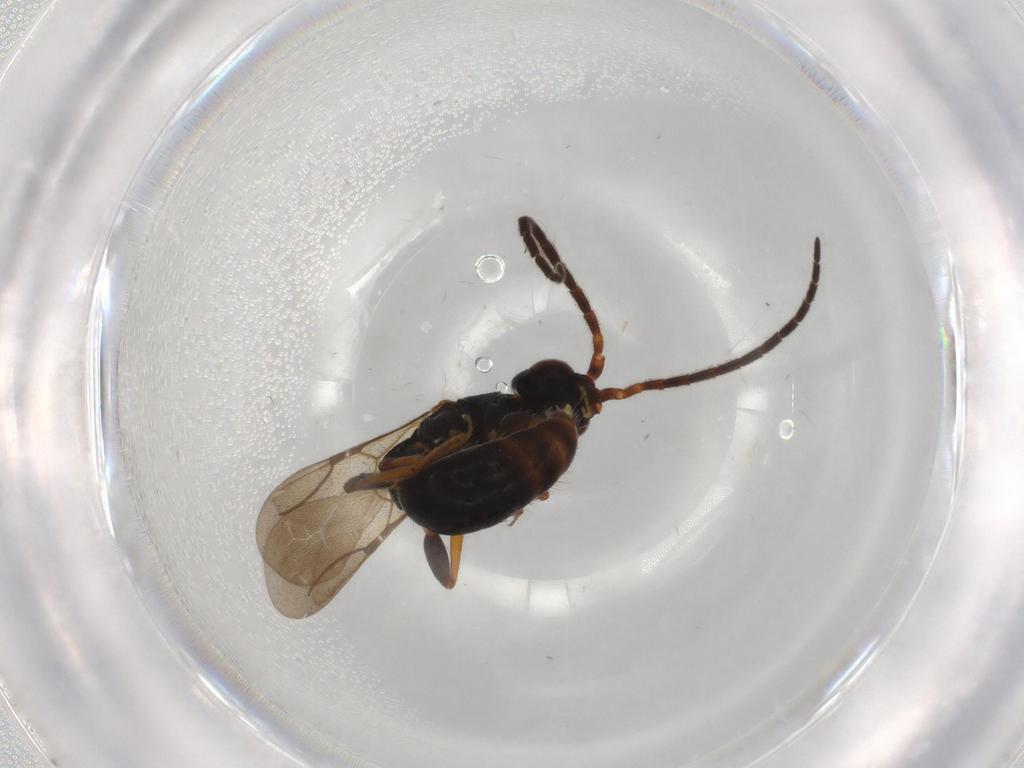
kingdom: Animalia
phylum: Arthropoda
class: Insecta
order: Hymenoptera
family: Bethylidae
